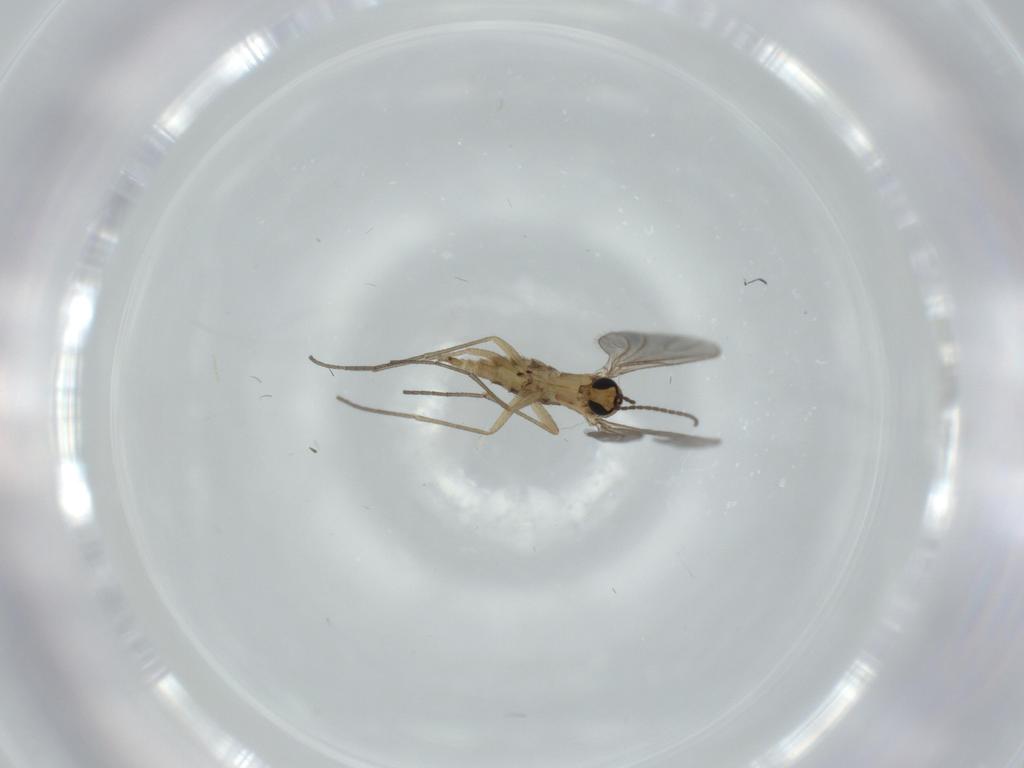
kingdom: Animalia
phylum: Arthropoda
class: Insecta
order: Diptera
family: Sciaridae
